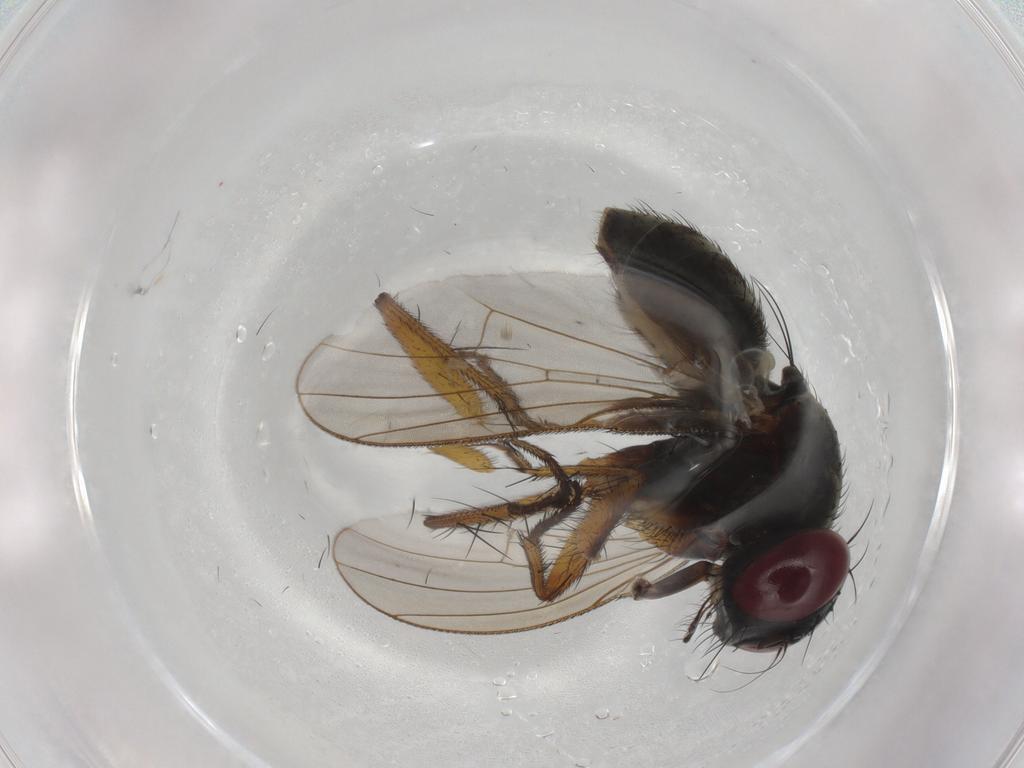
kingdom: Animalia
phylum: Arthropoda
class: Insecta
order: Diptera
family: Muscidae
